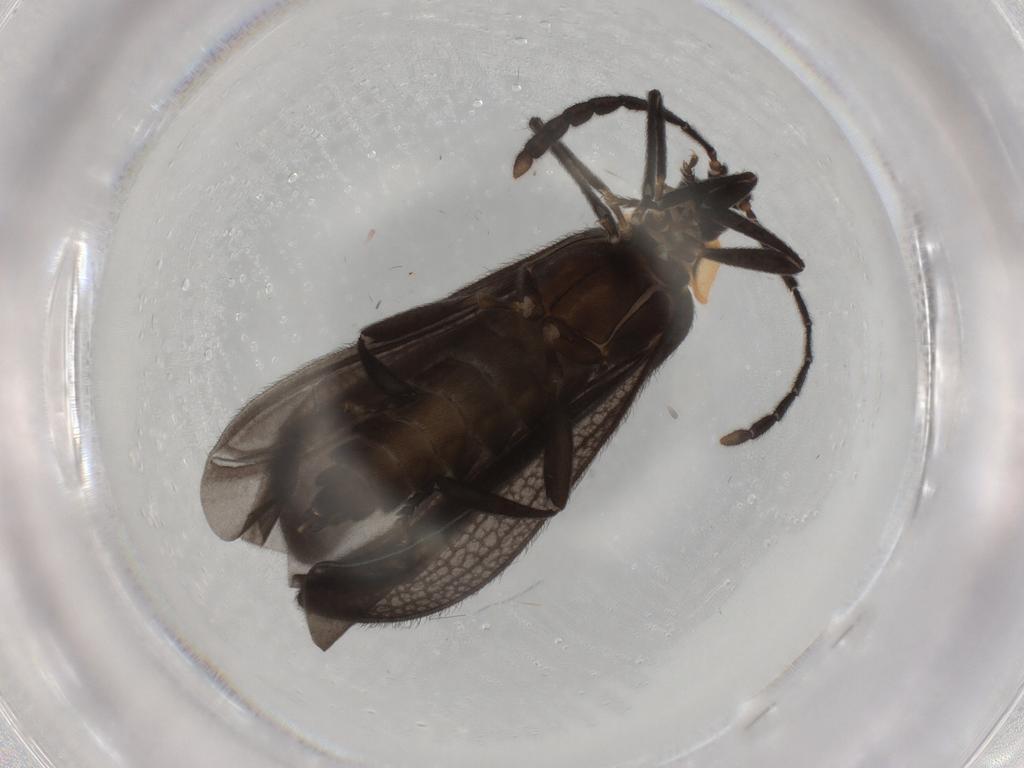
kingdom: Animalia
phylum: Arthropoda
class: Insecta
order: Coleoptera
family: Lycidae
